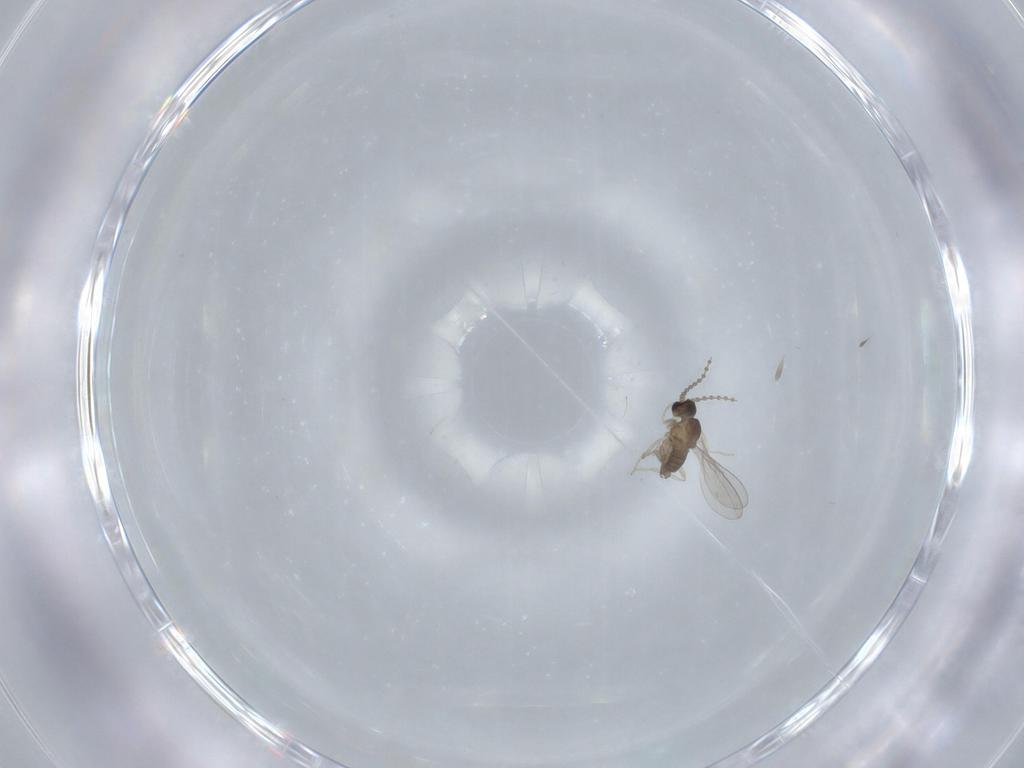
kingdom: Animalia
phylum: Arthropoda
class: Insecta
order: Diptera
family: Cecidomyiidae
